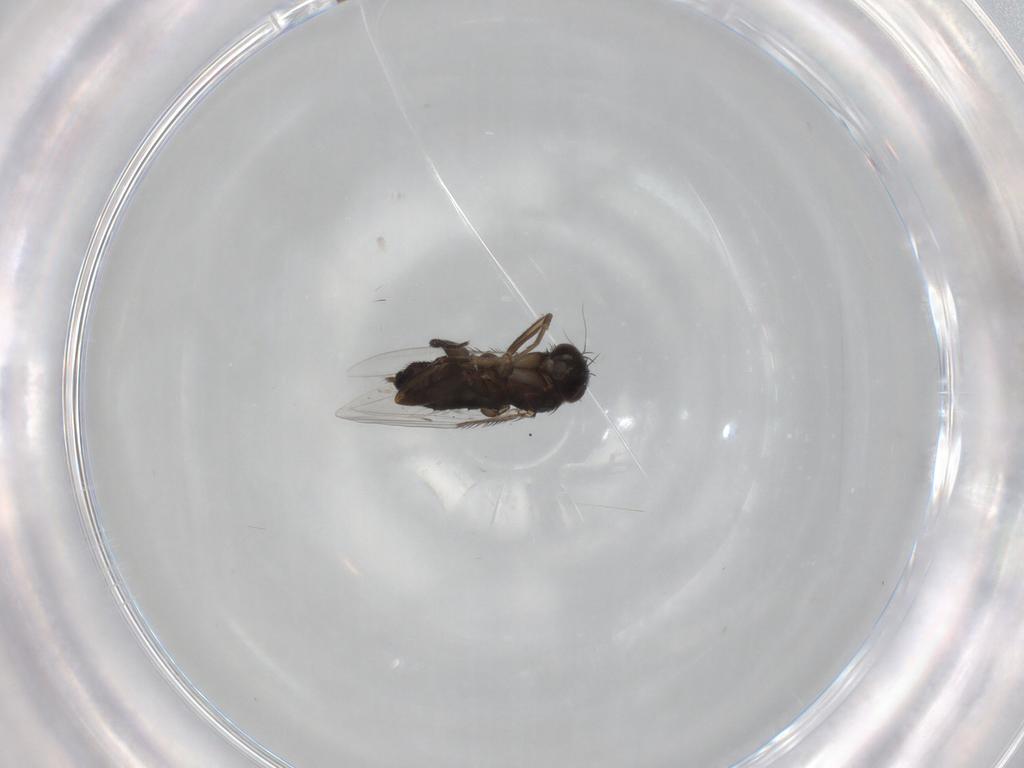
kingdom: Animalia
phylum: Arthropoda
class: Insecta
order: Diptera
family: Phoridae
